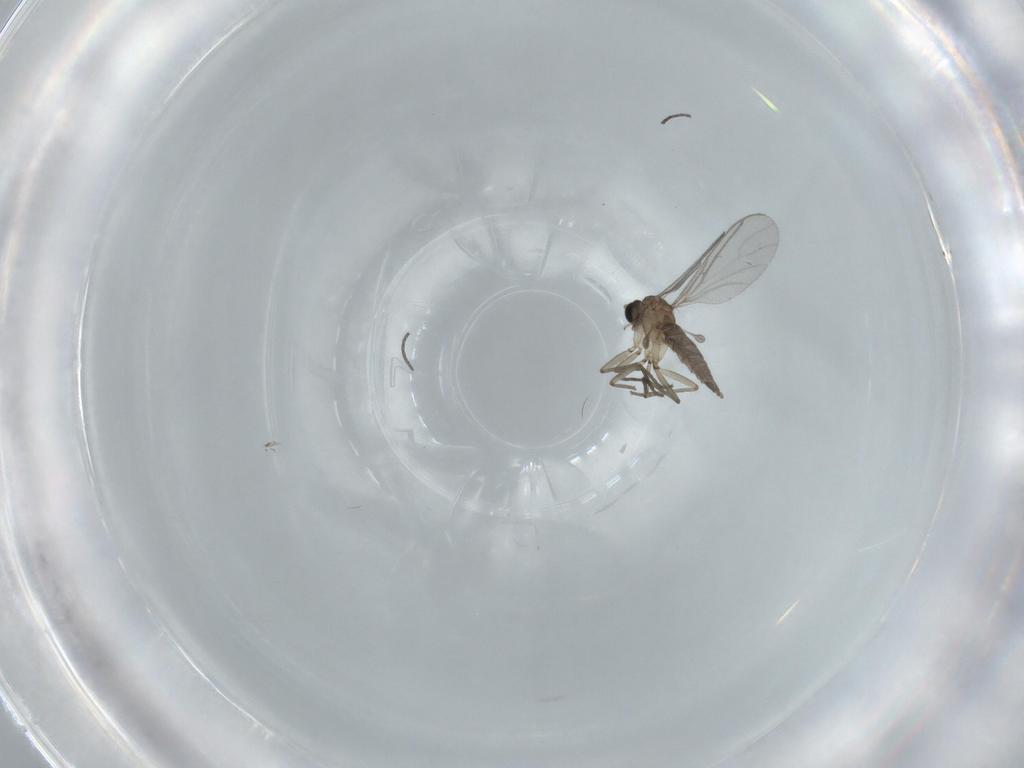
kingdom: Animalia
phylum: Arthropoda
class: Insecta
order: Diptera
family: Sciaridae
